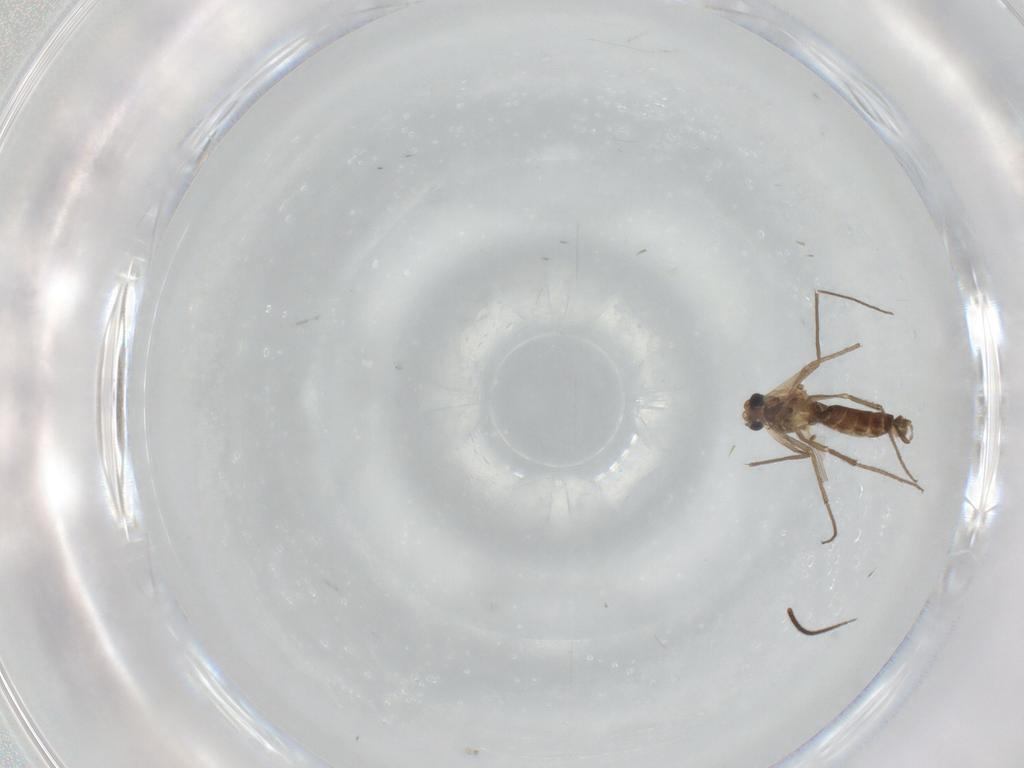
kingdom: Animalia
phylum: Arthropoda
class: Insecta
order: Diptera
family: Chironomidae
